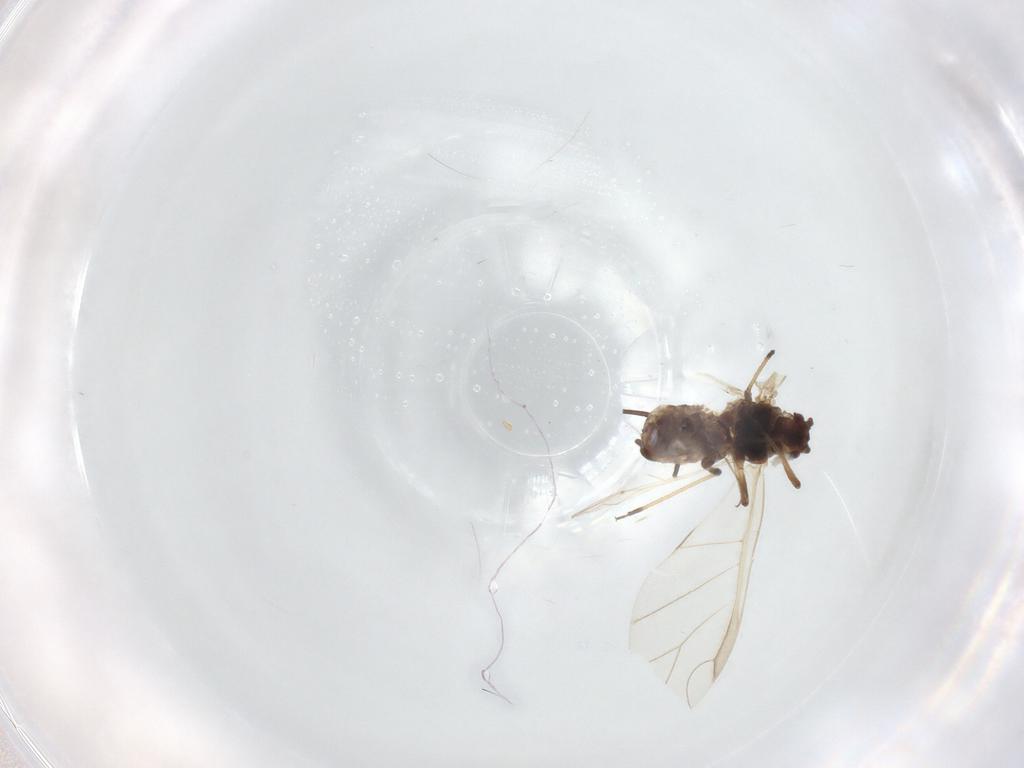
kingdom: Animalia
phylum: Arthropoda
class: Insecta
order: Hemiptera
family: Aphididae
